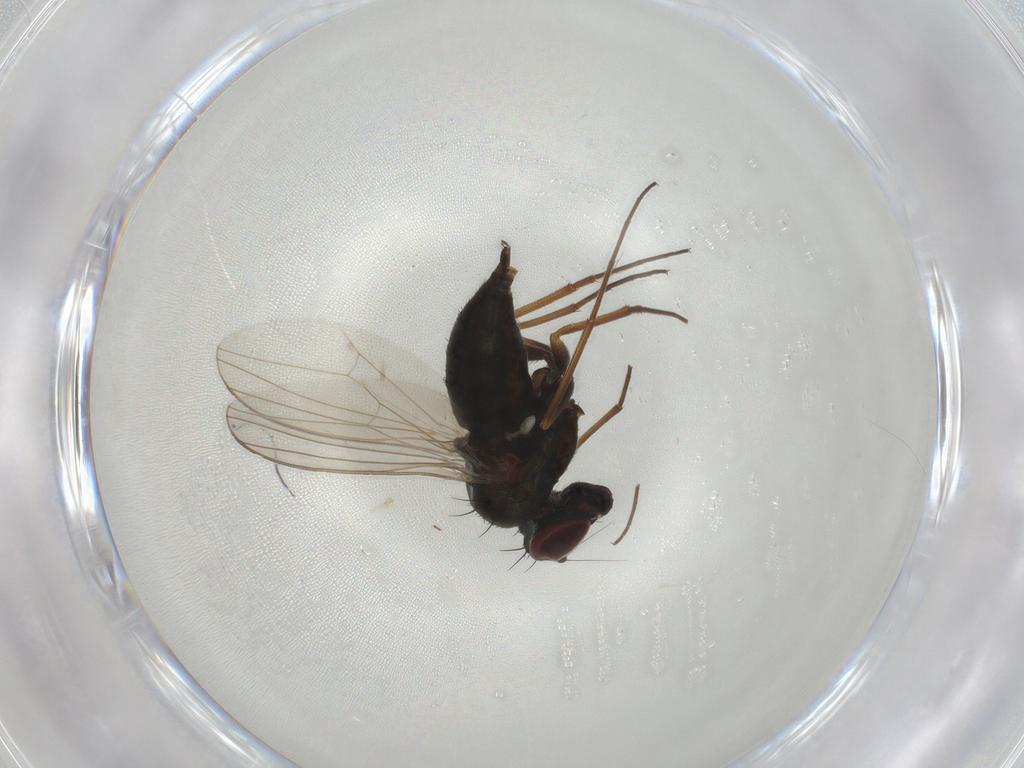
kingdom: Animalia
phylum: Arthropoda
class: Insecta
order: Diptera
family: Dolichopodidae
